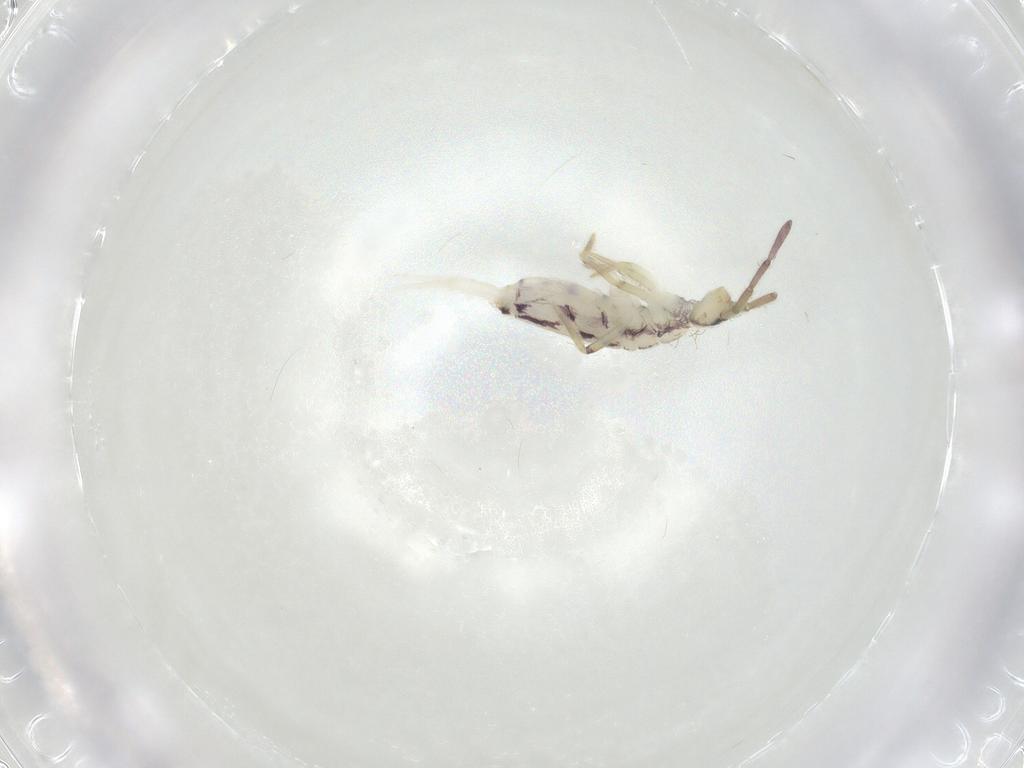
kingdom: Animalia
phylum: Arthropoda
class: Collembola
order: Entomobryomorpha
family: Entomobryidae
